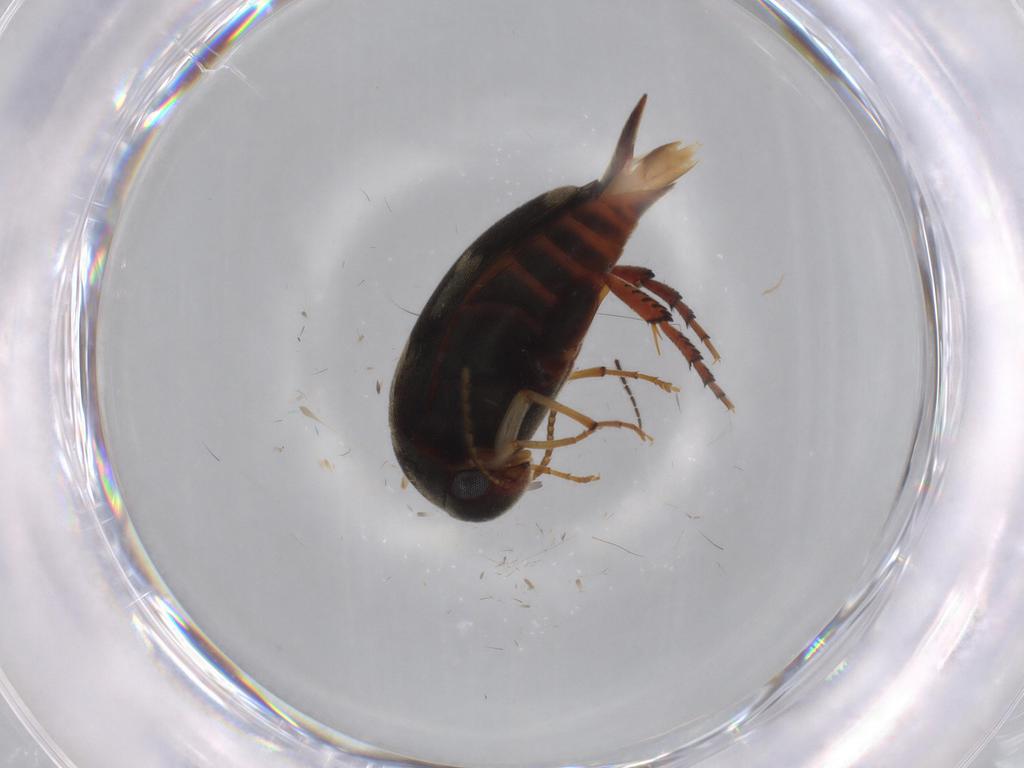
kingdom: Animalia
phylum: Arthropoda
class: Insecta
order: Coleoptera
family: Mordellidae
